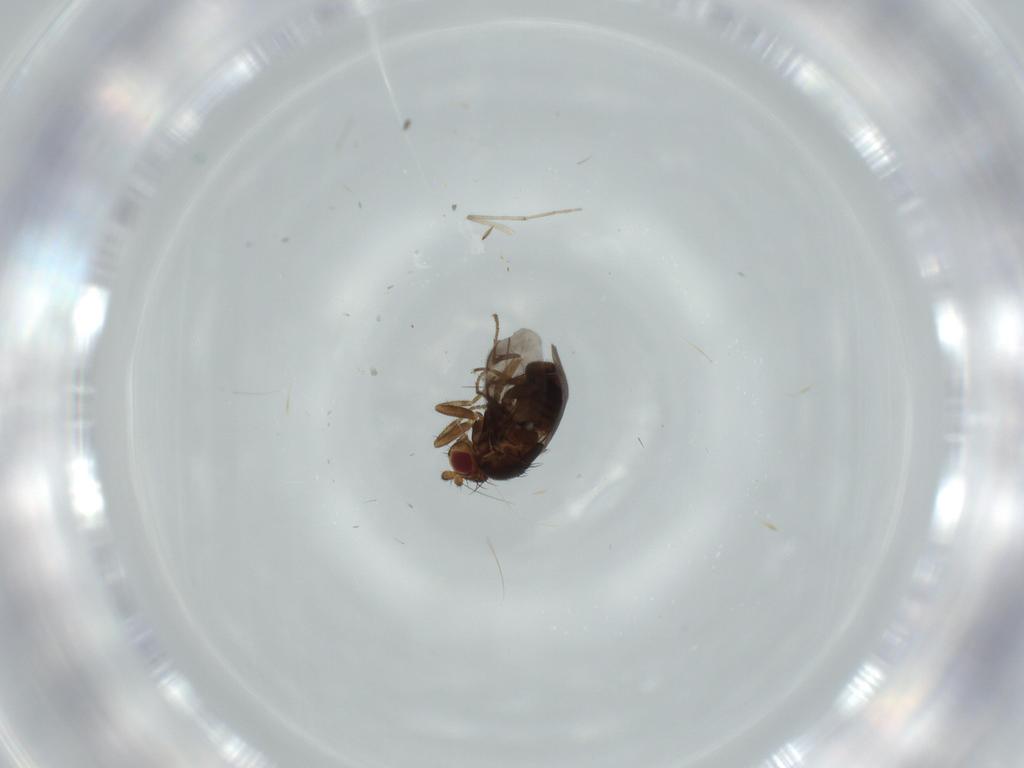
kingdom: Animalia
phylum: Arthropoda
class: Insecta
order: Diptera
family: Chironomidae
